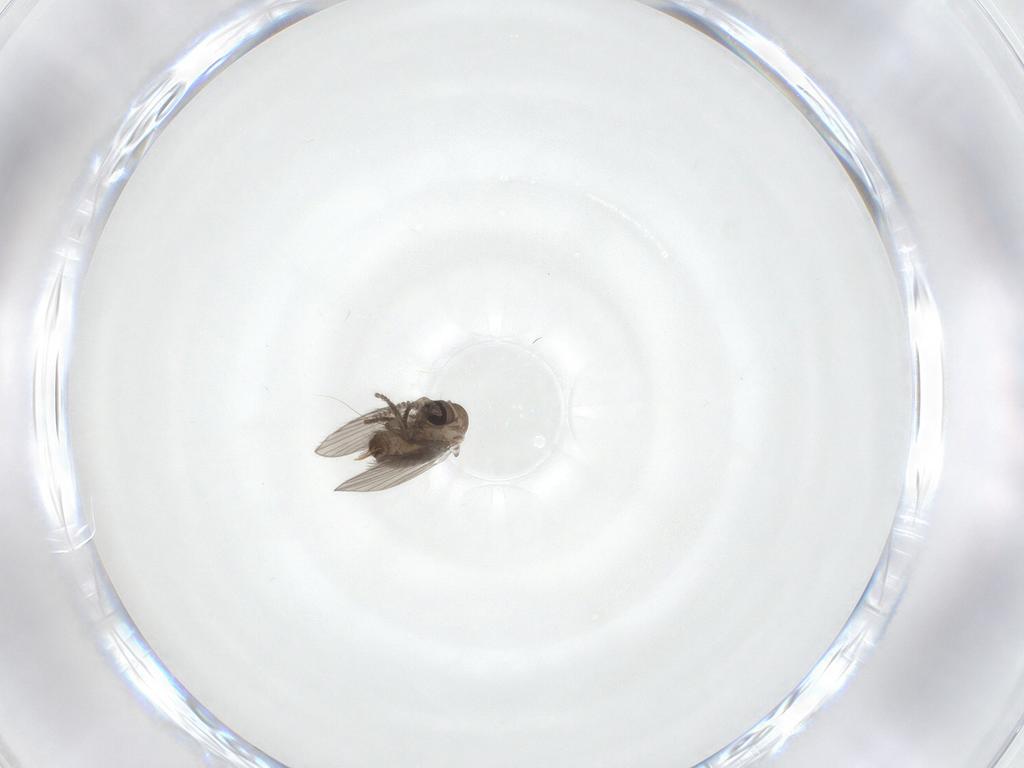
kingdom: Animalia
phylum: Arthropoda
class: Insecta
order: Diptera
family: Psychodidae
